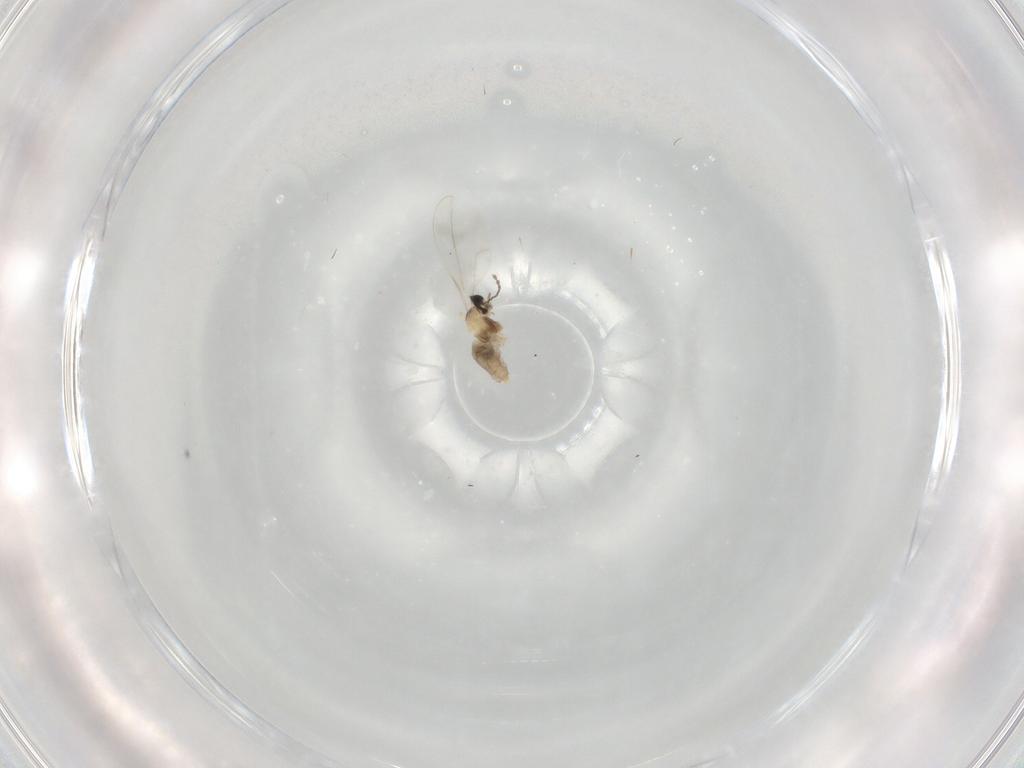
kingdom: Animalia
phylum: Arthropoda
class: Insecta
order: Diptera
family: Cecidomyiidae
